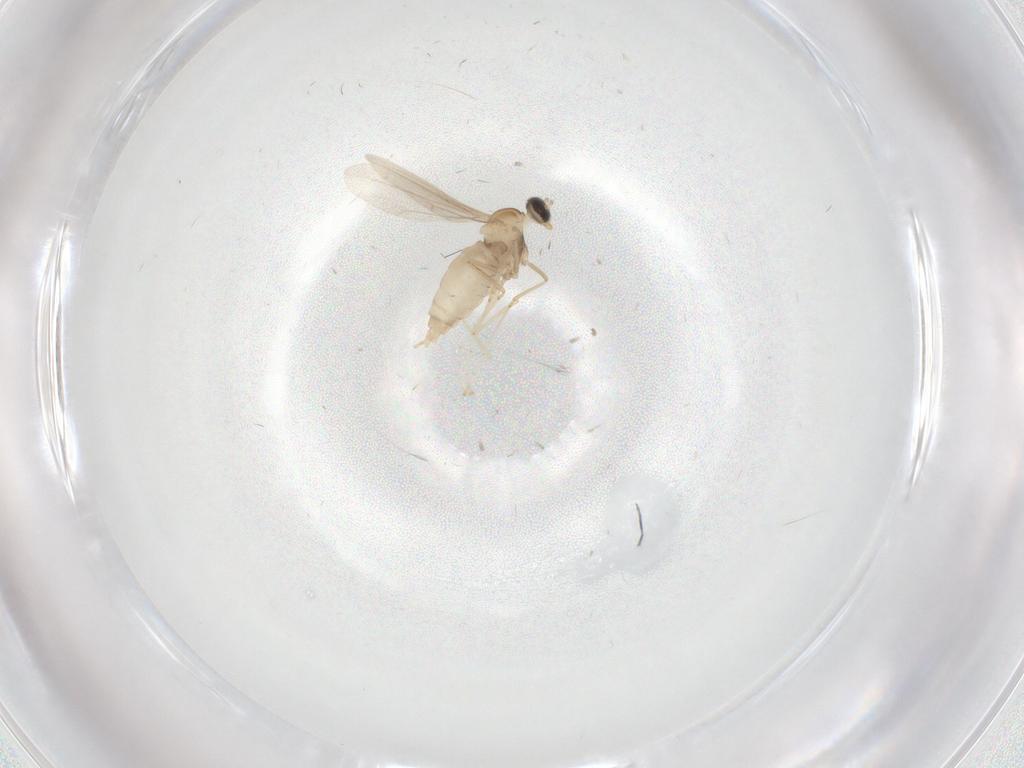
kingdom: Animalia
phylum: Arthropoda
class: Insecta
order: Diptera
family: Cecidomyiidae
